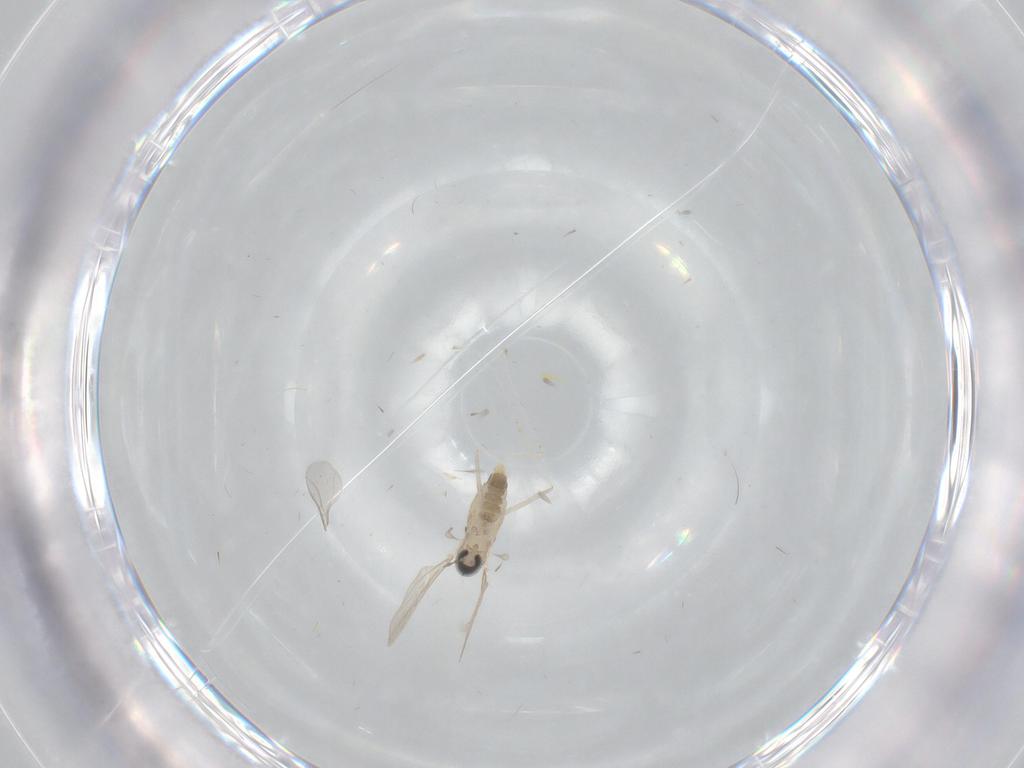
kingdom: Animalia
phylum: Arthropoda
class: Insecta
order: Diptera
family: Cecidomyiidae
